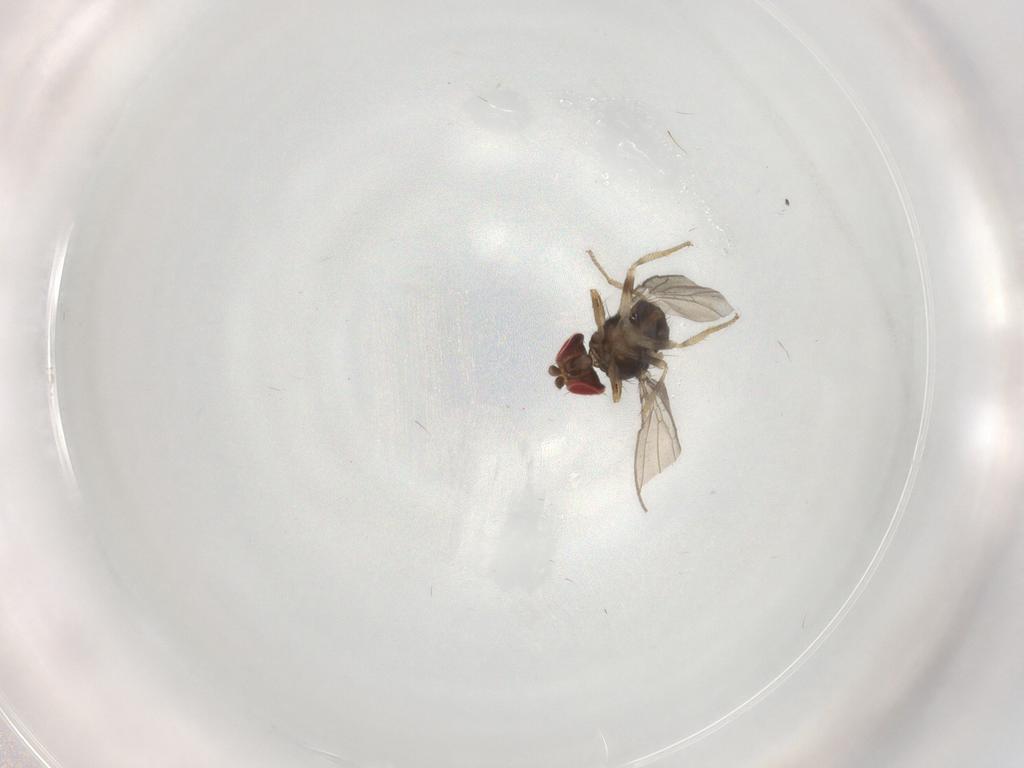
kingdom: Animalia
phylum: Arthropoda
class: Insecta
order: Diptera
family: Drosophilidae
